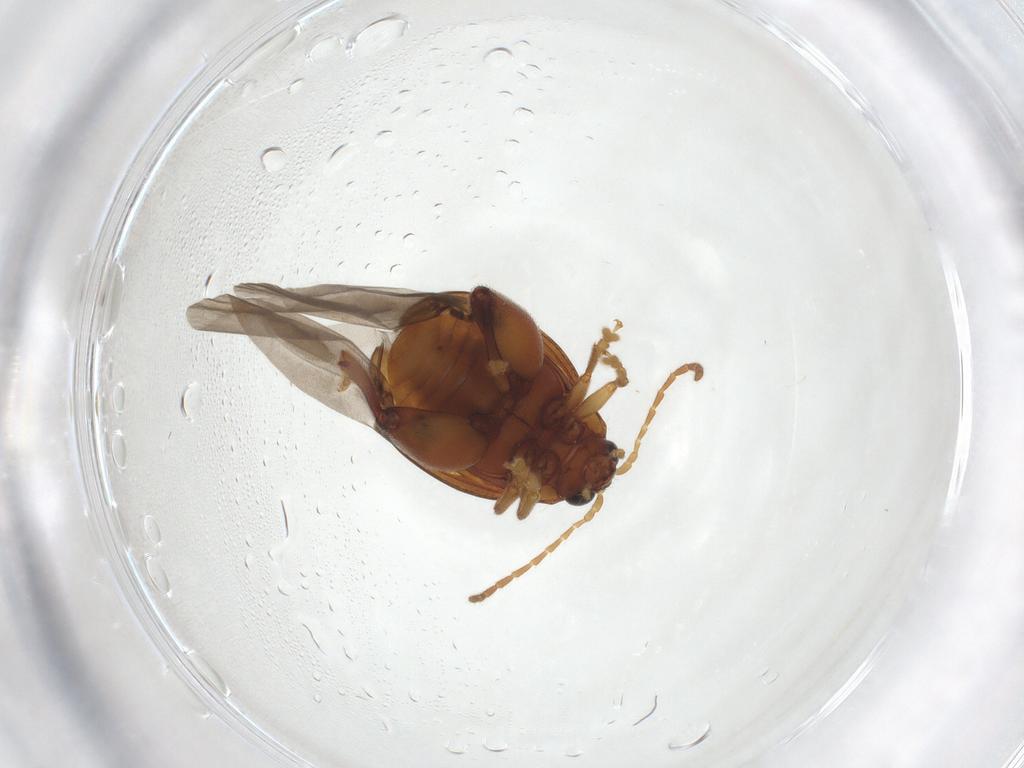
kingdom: Animalia
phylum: Arthropoda
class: Insecta
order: Coleoptera
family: Chrysomelidae
